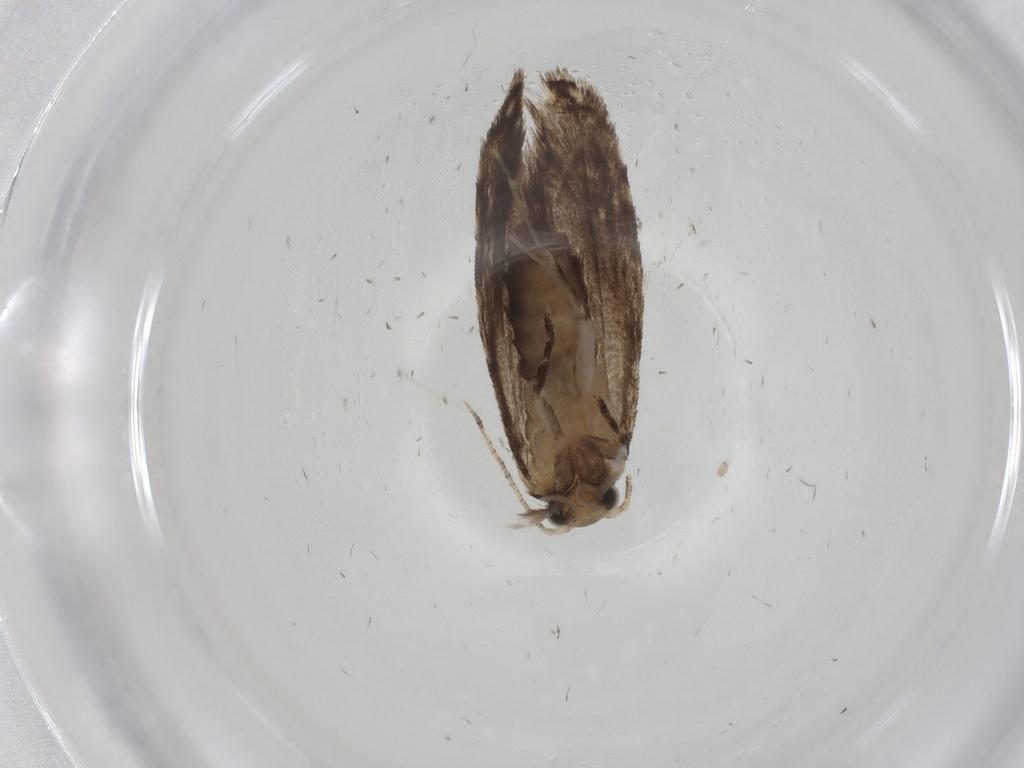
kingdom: Animalia
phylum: Arthropoda
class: Insecta
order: Lepidoptera
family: Tineidae
